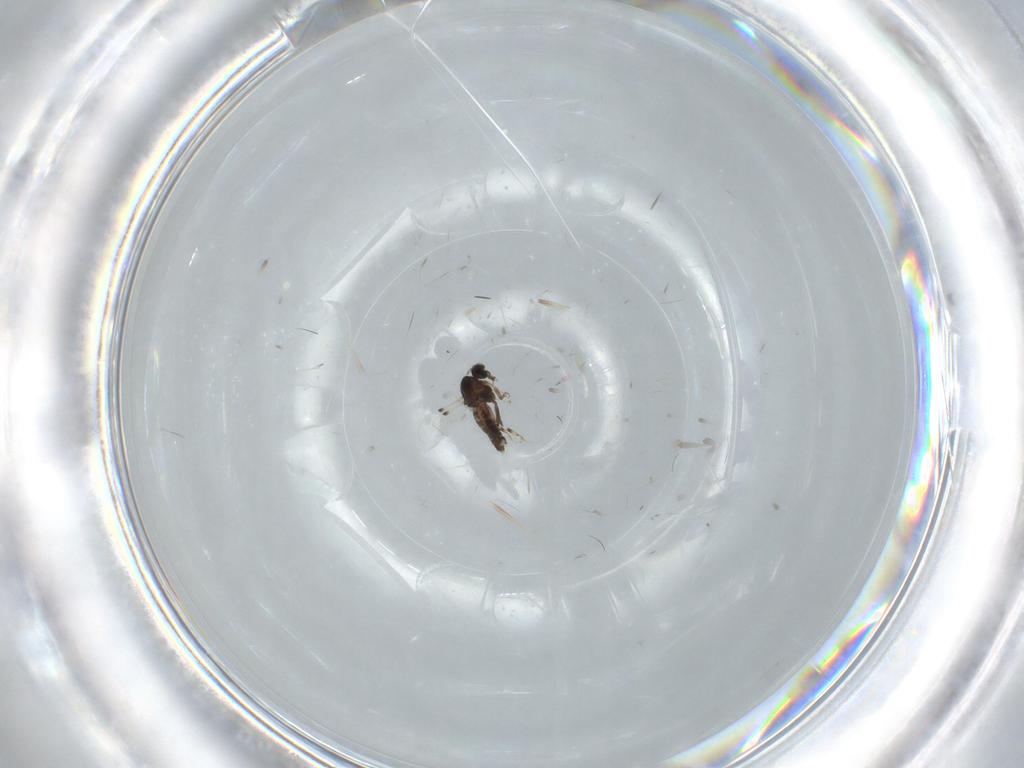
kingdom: Animalia
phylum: Arthropoda
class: Insecta
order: Diptera
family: Ceratopogonidae
